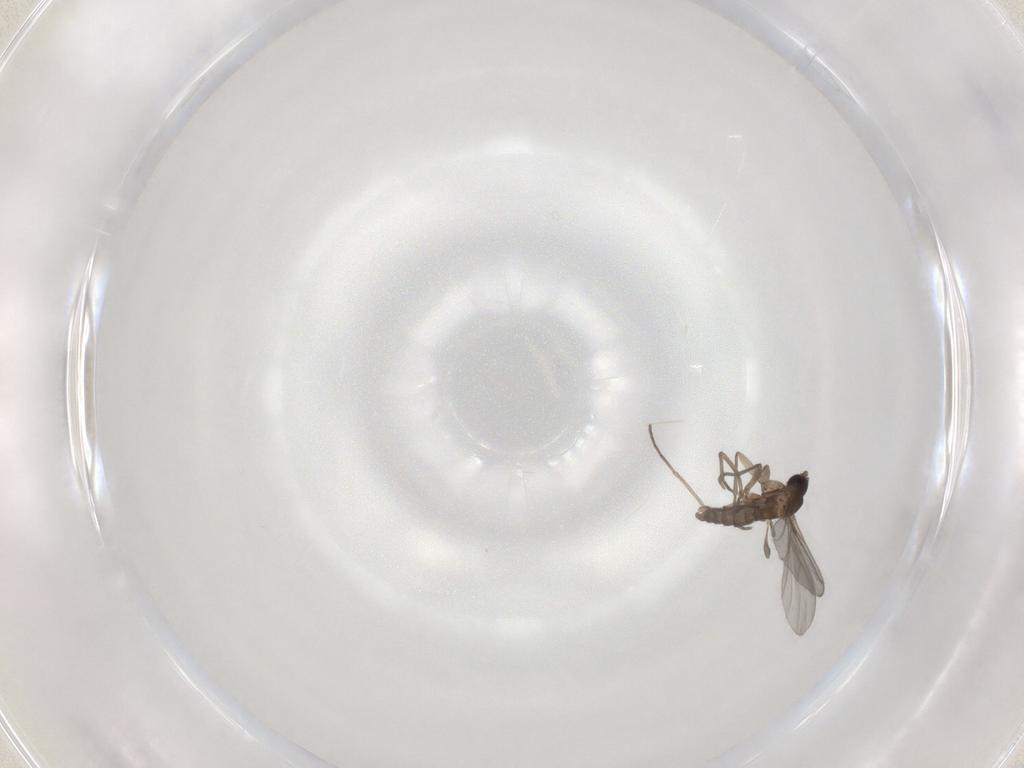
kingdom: Animalia
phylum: Arthropoda
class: Insecta
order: Diptera
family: Sciaridae
